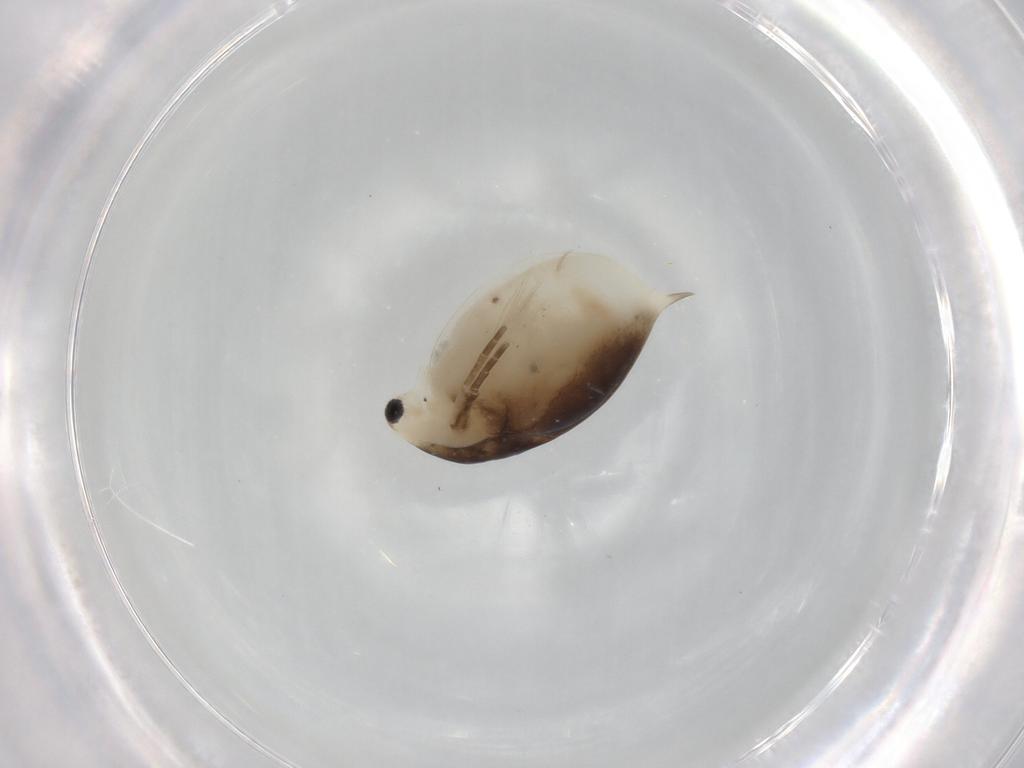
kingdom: Animalia
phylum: Arthropoda
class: Branchiopoda
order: Diplostraca
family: Daphniidae
